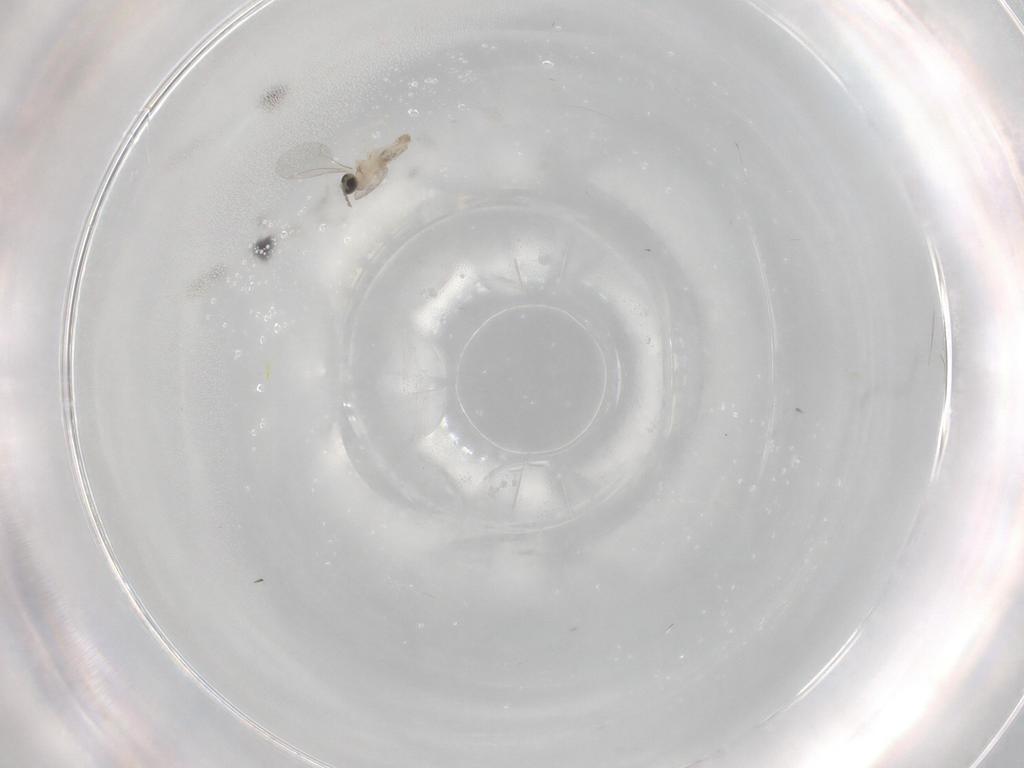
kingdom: Animalia
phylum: Arthropoda
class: Insecta
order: Diptera
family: Cecidomyiidae
